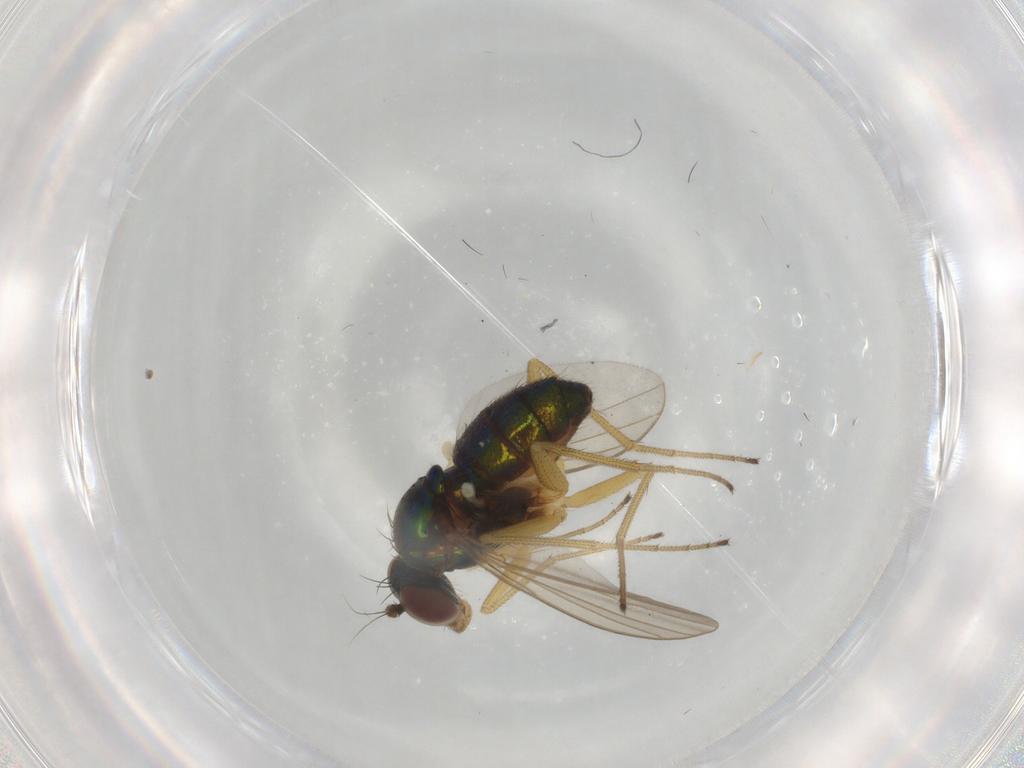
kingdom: Animalia
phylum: Arthropoda
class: Insecta
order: Diptera
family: Dolichopodidae
